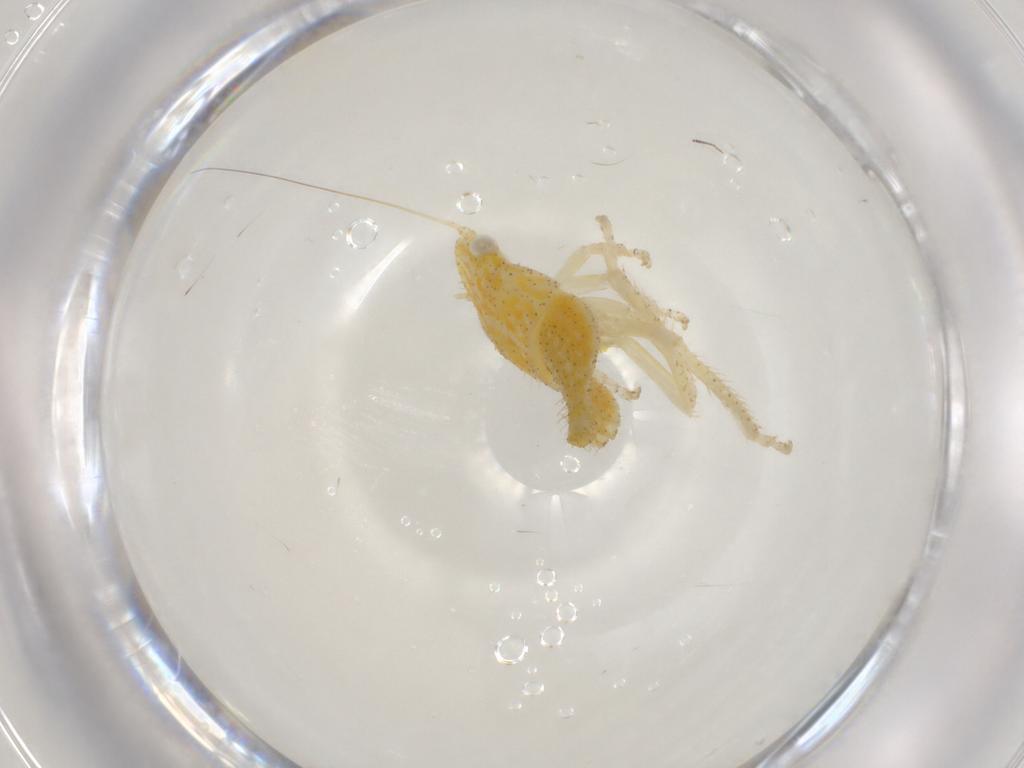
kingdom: Animalia
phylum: Arthropoda
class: Insecta
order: Hemiptera
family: Cicadellidae
